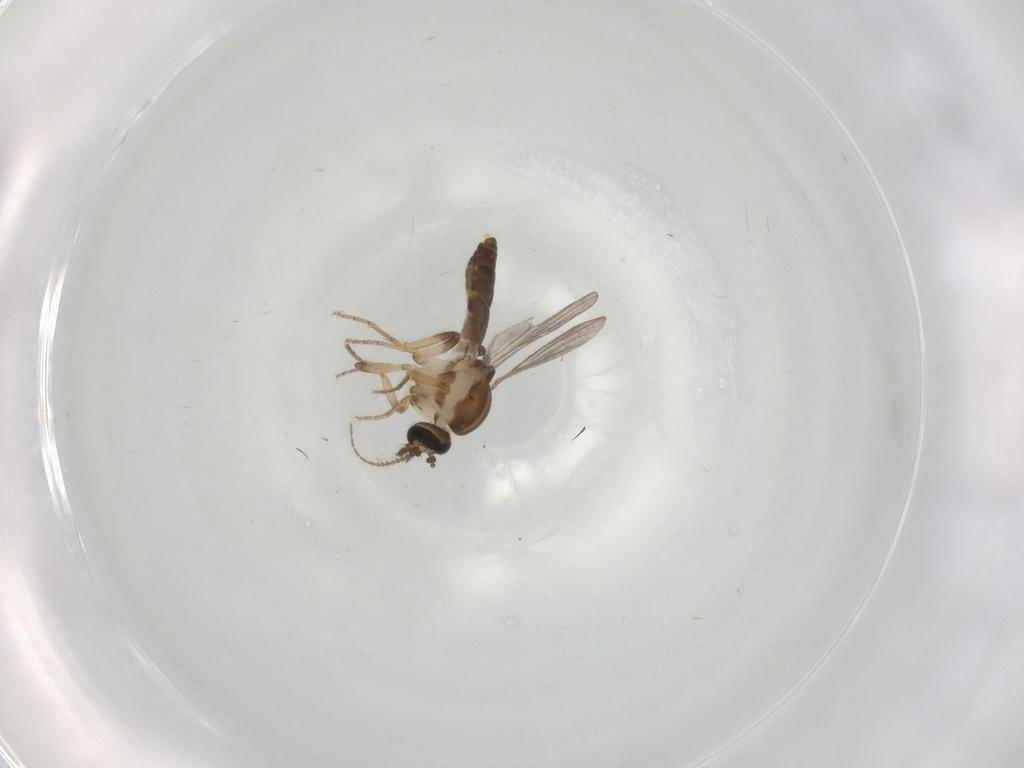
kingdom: Animalia
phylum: Arthropoda
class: Insecta
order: Diptera
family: Ceratopogonidae
